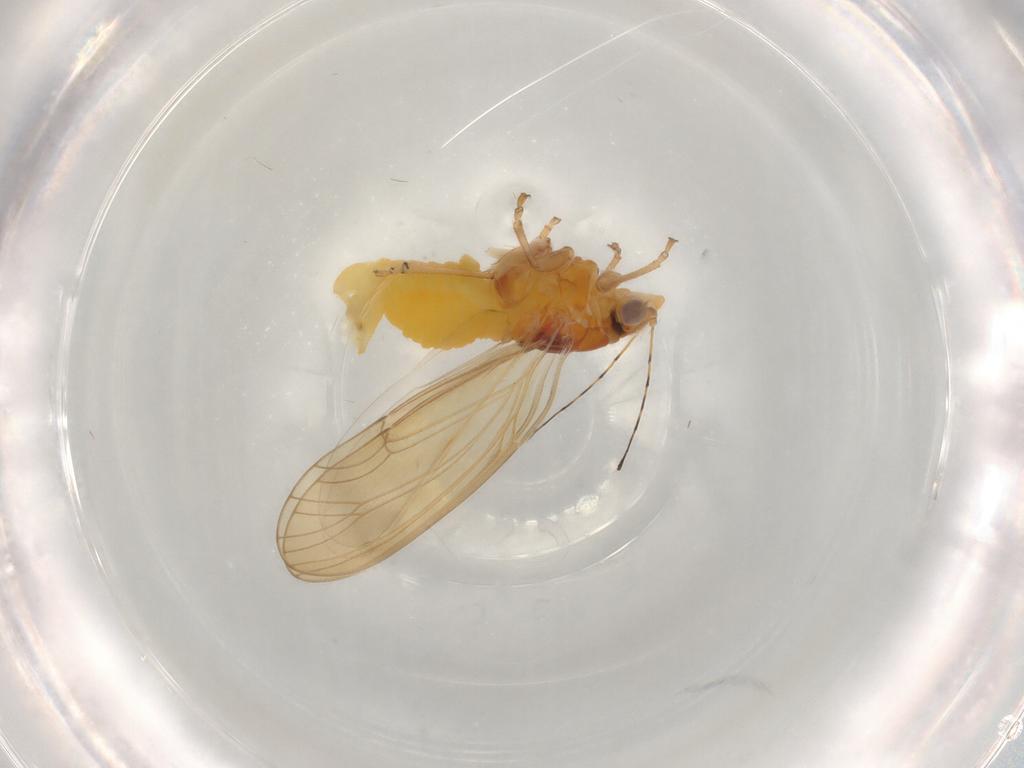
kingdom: Animalia
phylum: Arthropoda
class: Insecta
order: Hemiptera
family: Psylloidea_incertae_sedis
